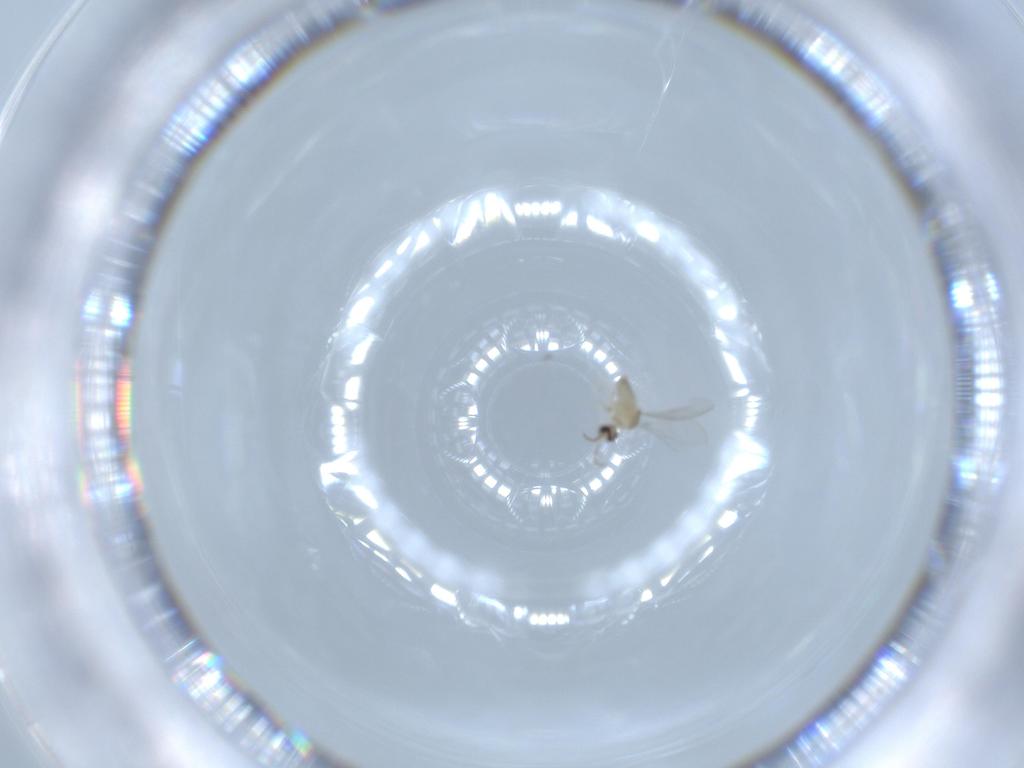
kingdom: Animalia
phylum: Arthropoda
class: Insecta
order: Diptera
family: Cecidomyiidae
